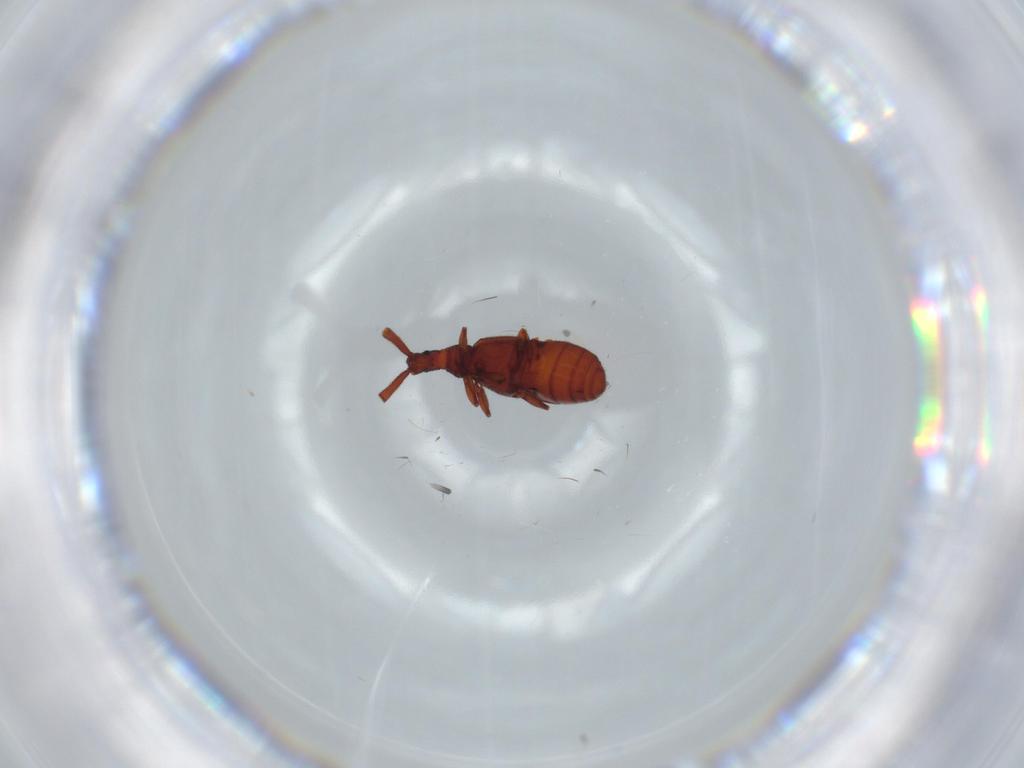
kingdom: Animalia
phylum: Arthropoda
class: Insecta
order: Coleoptera
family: Staphylinidae
